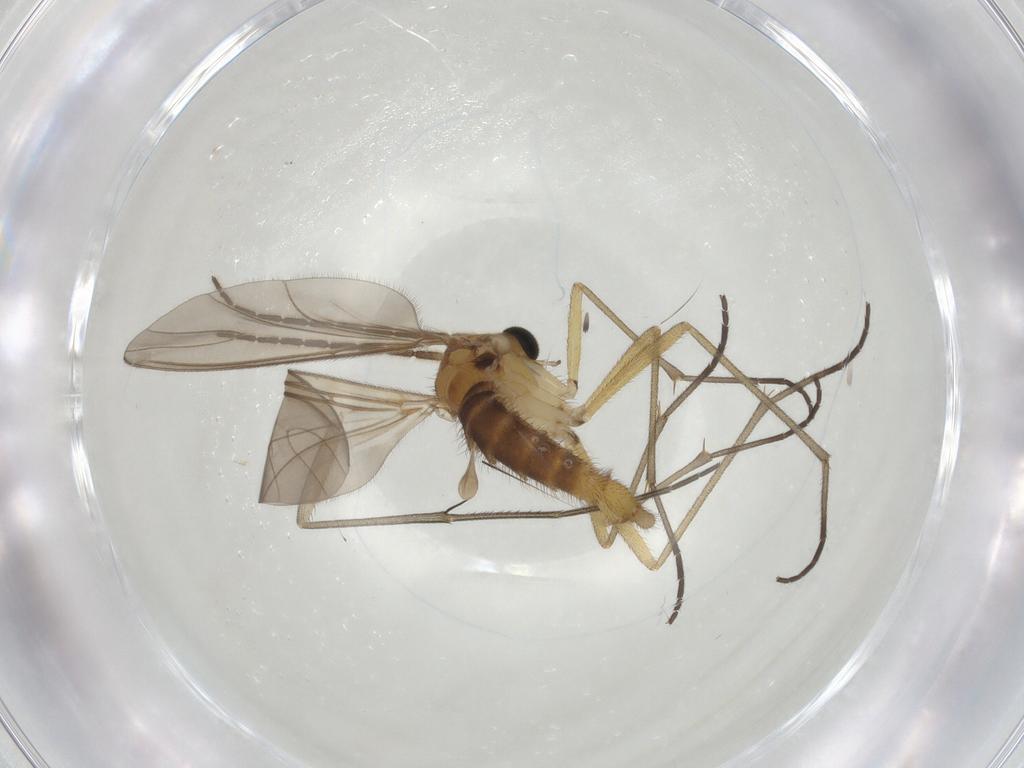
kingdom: Animalia
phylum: Arthropoda
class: Insecta
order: Diptera
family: Sciaridae
